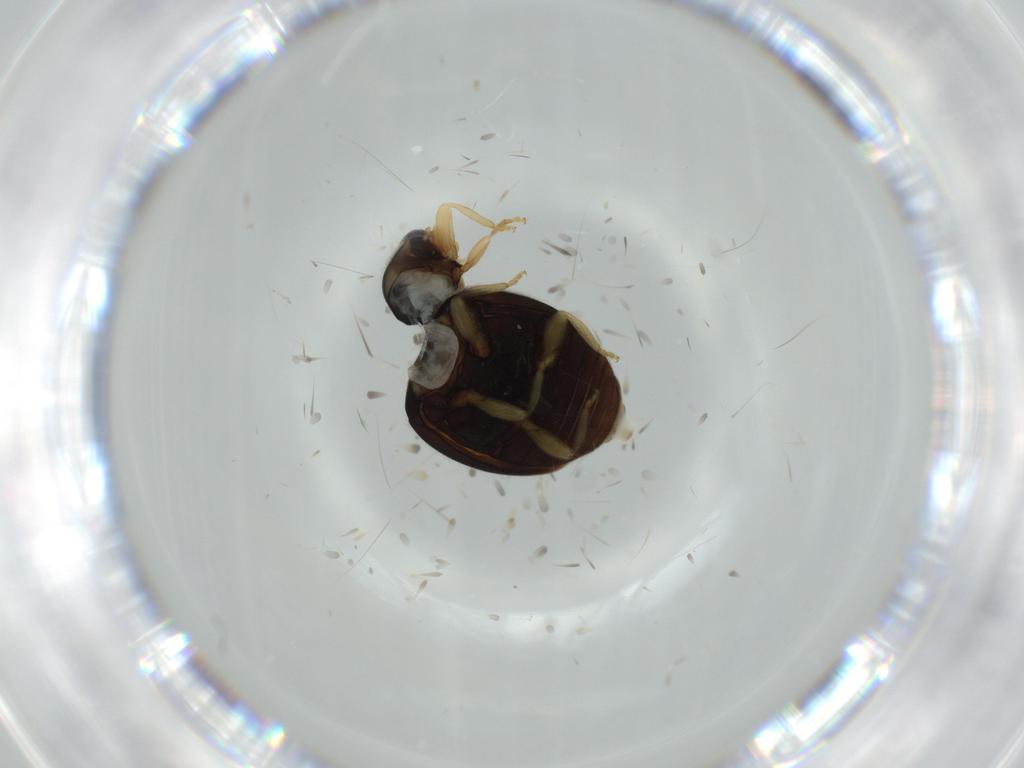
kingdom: Animalia
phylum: Arthropoda
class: Insecta
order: Coleoptera
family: Coccinellidae
